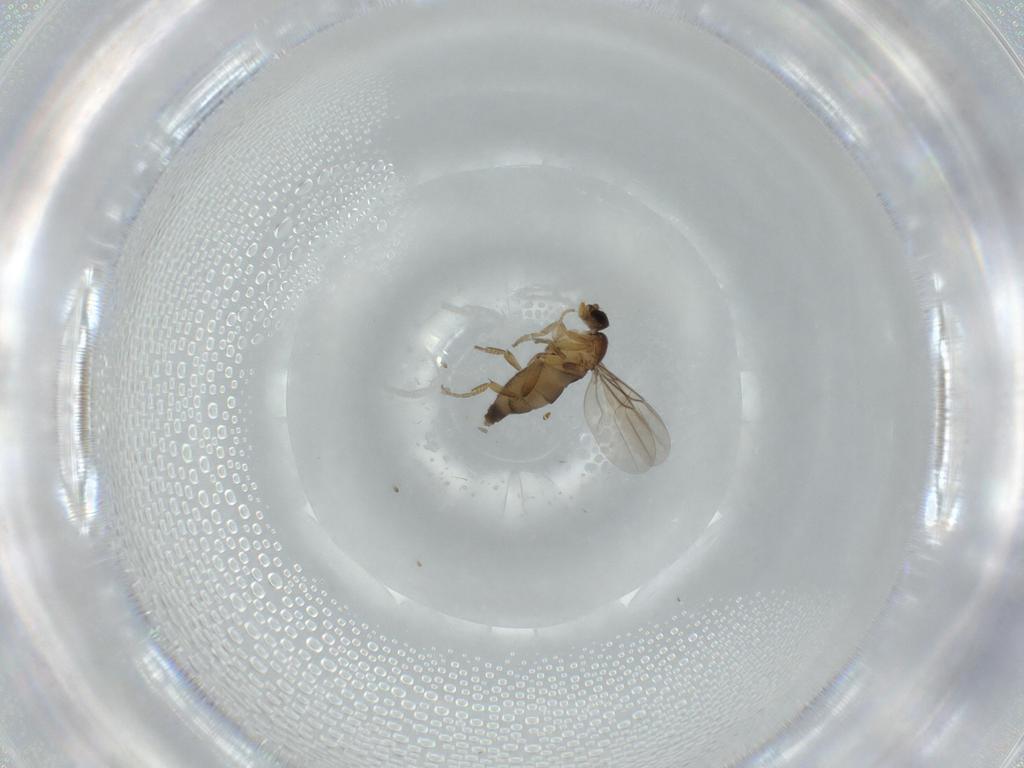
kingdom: Animalia
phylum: Arthropoda
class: Insecta
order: Diptera
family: Phoridae
